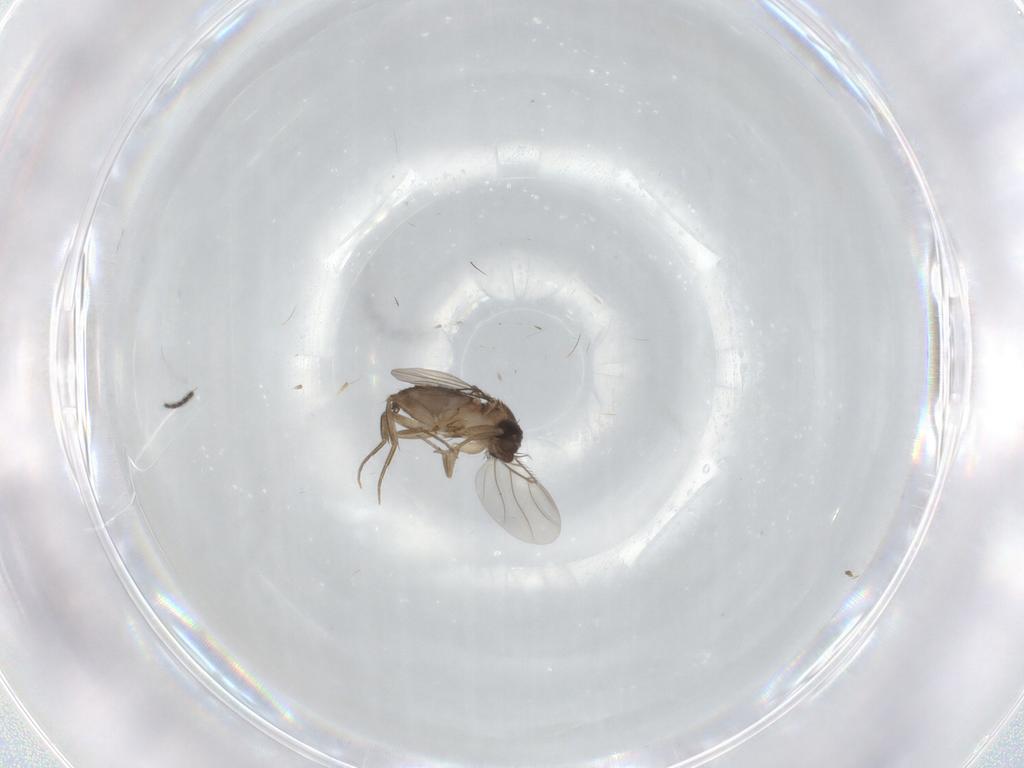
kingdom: Animalia
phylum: Arthropoda
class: Insecta
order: Diptera
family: Phoridae
